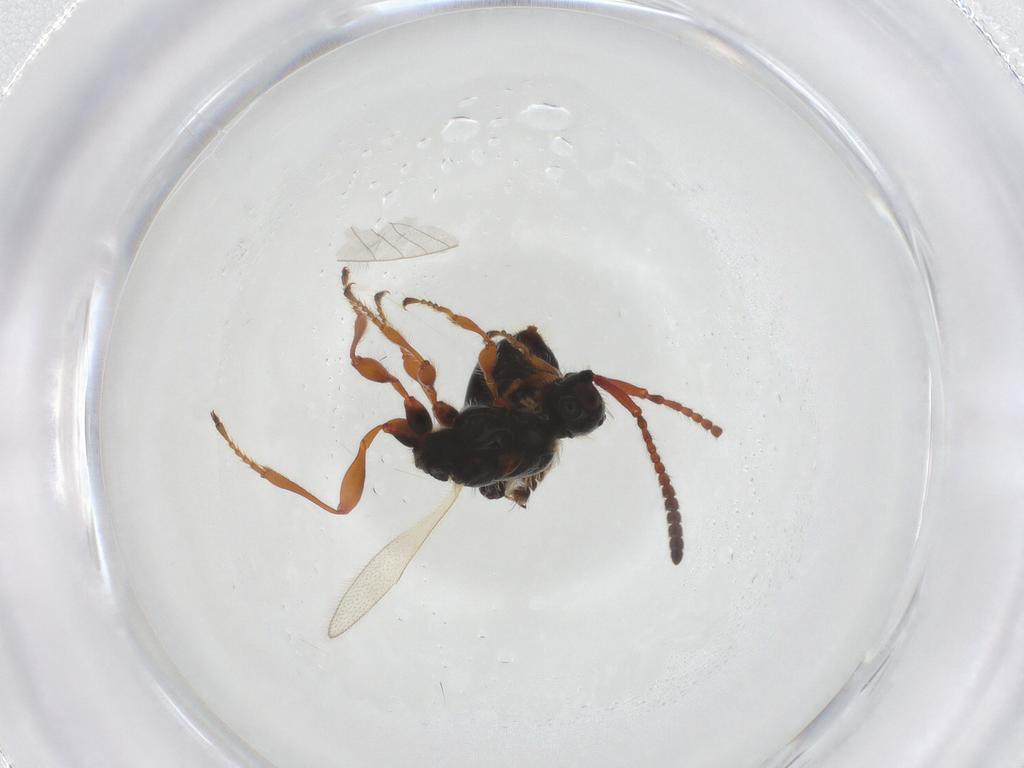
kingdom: Animalia
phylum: Arthropoda
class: Insecta
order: Hymenoptera
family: Diapriidae
